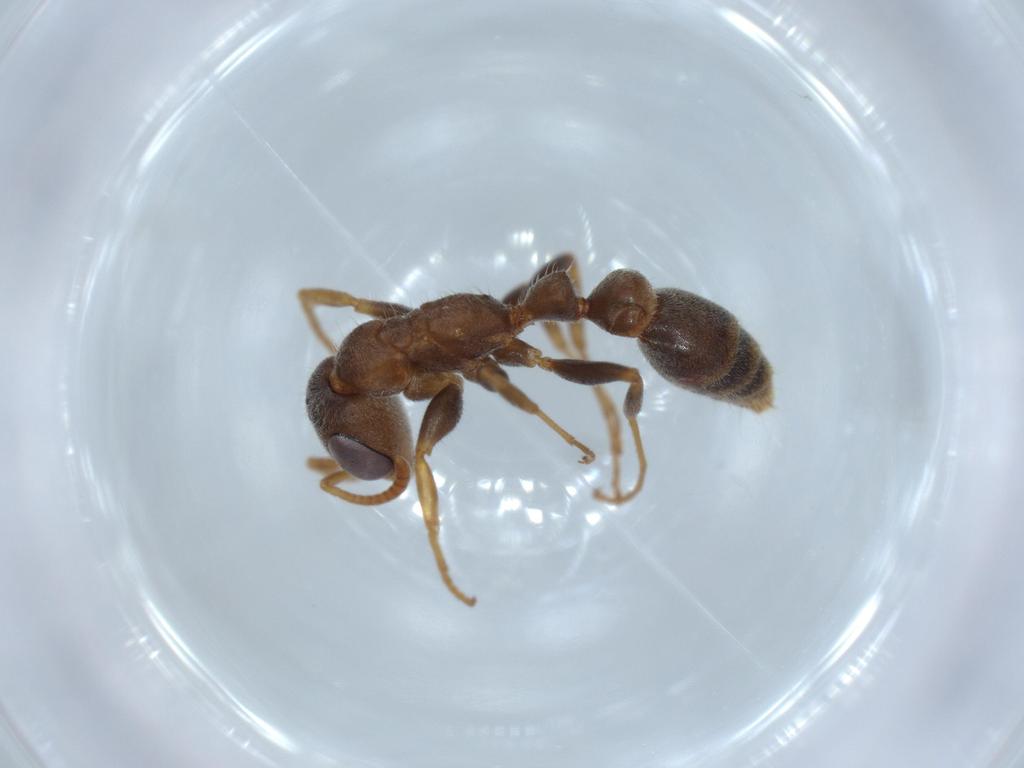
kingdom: Animalia
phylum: Arthropoda
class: Insecta
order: Hymenoptera
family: Formicidae
